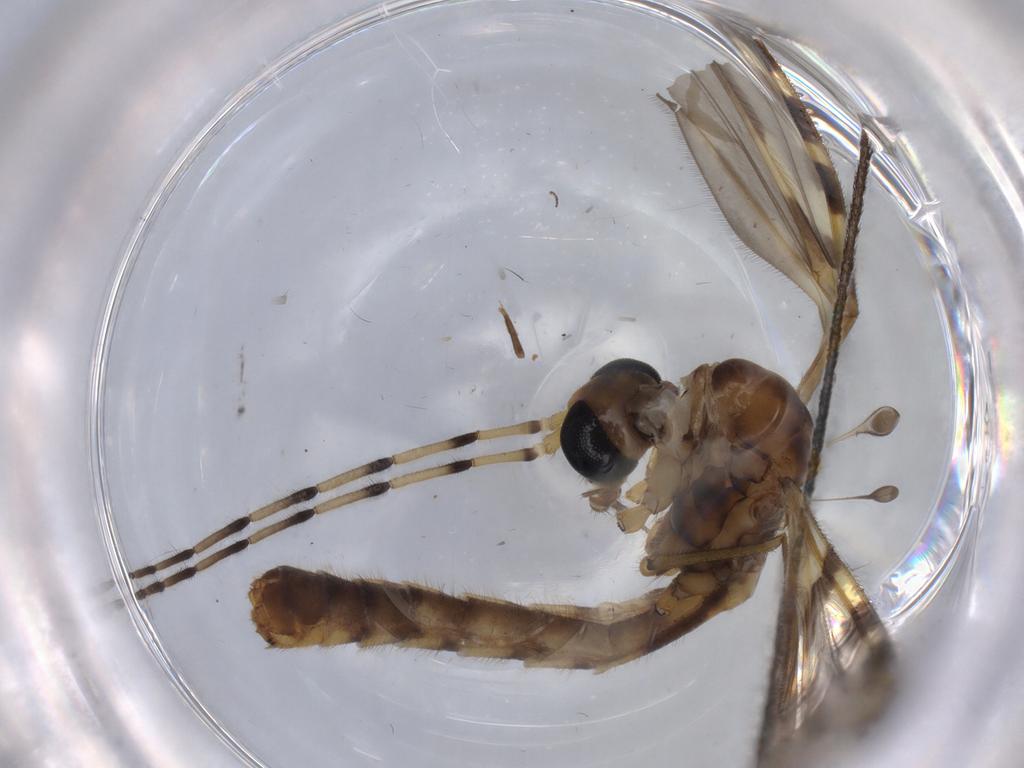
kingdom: Animalia
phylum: Arthropoda
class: Insecta
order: Diptera
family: Tipulidae
